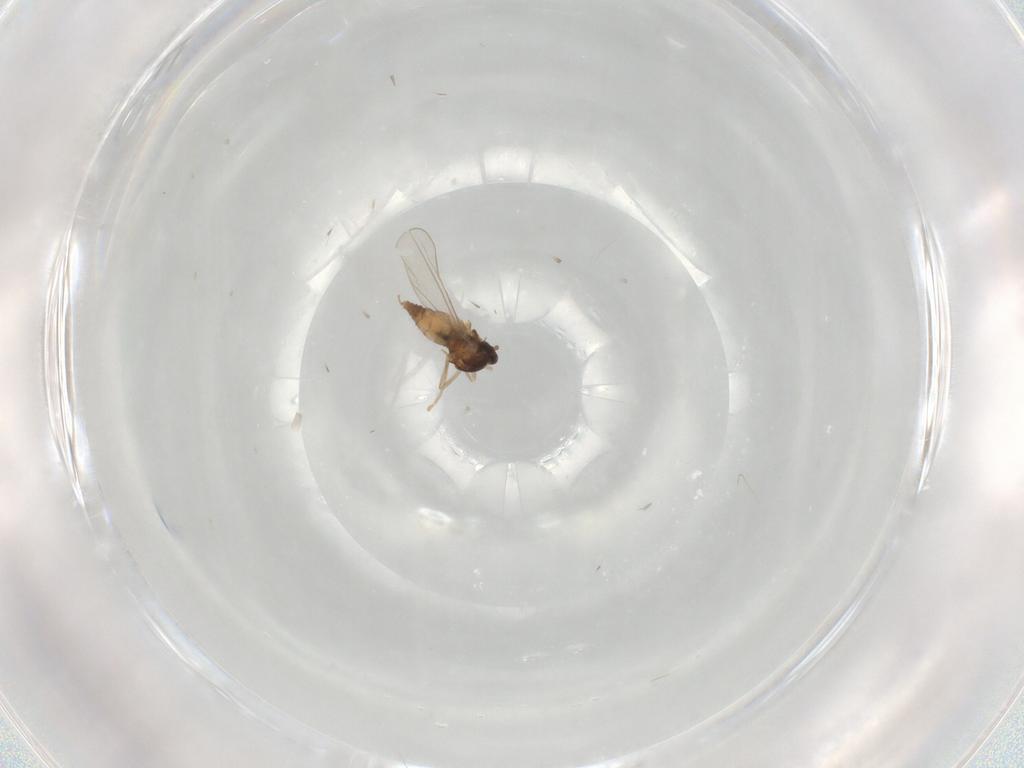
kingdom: Animalia
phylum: Arthropoda
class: Insecta
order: Diptera
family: Cecidomyiidae
